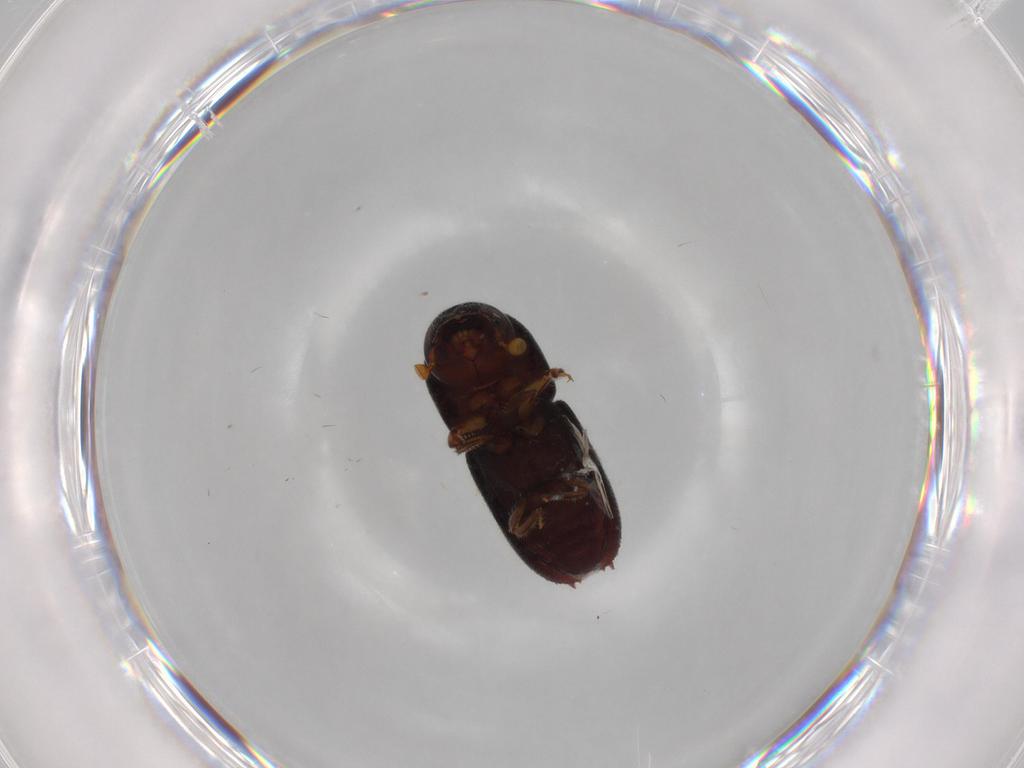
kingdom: Animalia
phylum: Arthropoda
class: Insecta
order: Coleoptera
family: Curculionidae
